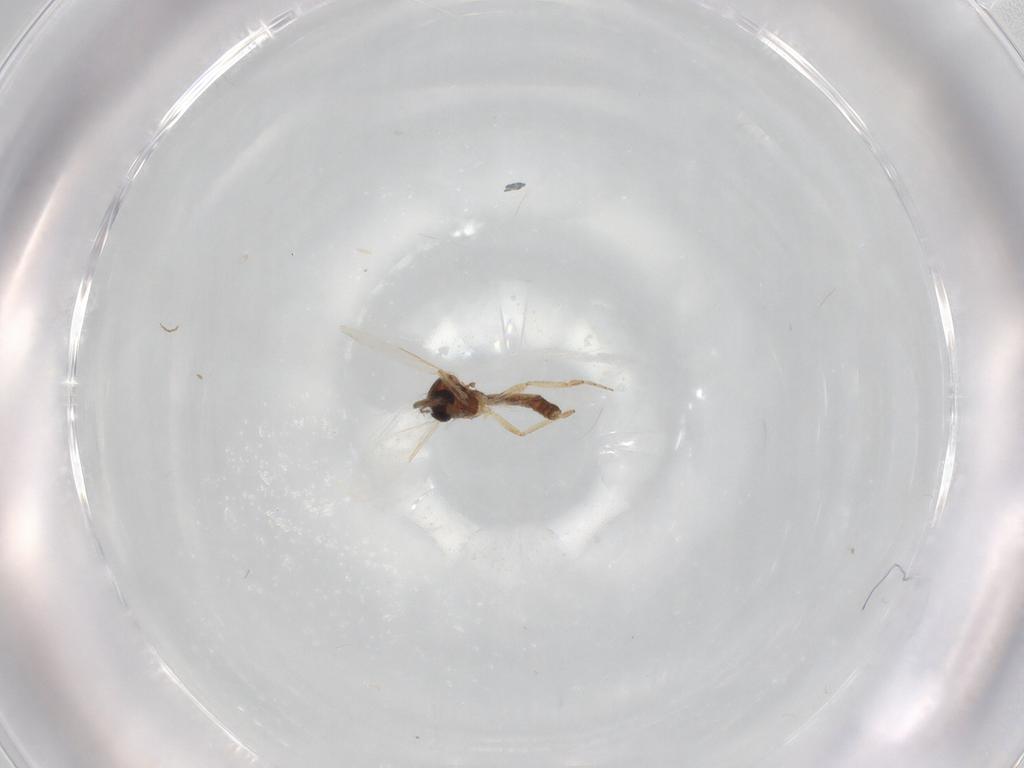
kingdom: Animalia
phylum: Arthropoda
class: Insecta
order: Diptera
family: Ceratopogonidae
